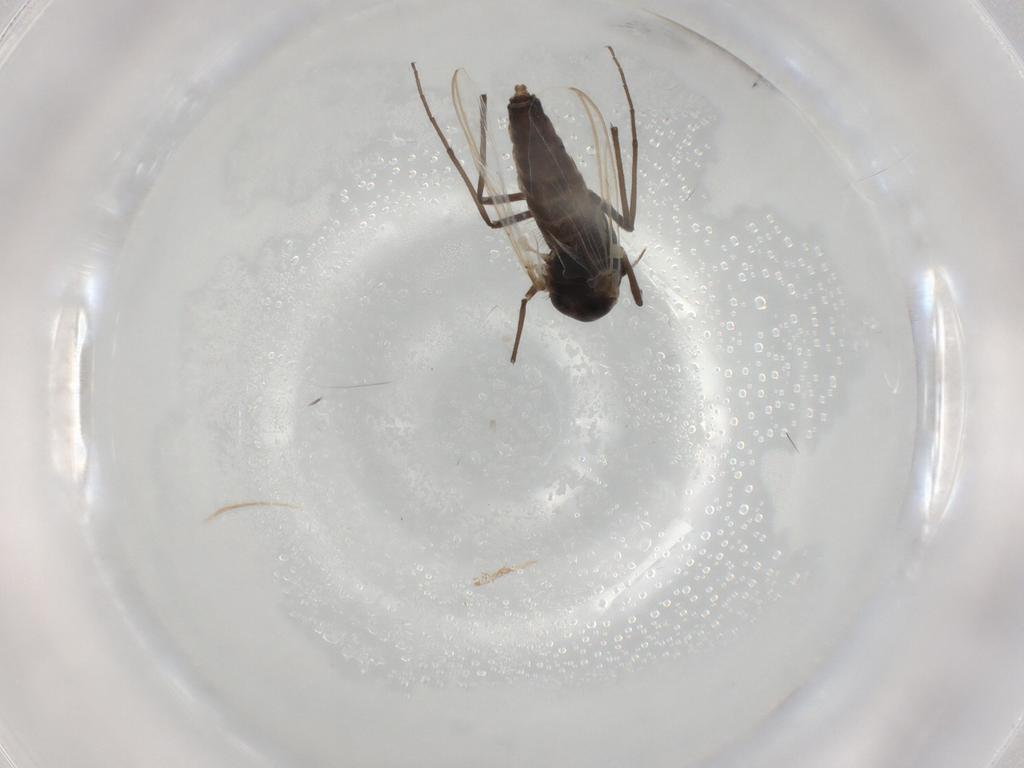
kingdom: Animalia
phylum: Arthropoda
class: Insecta
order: Diptera
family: Chironomidae
